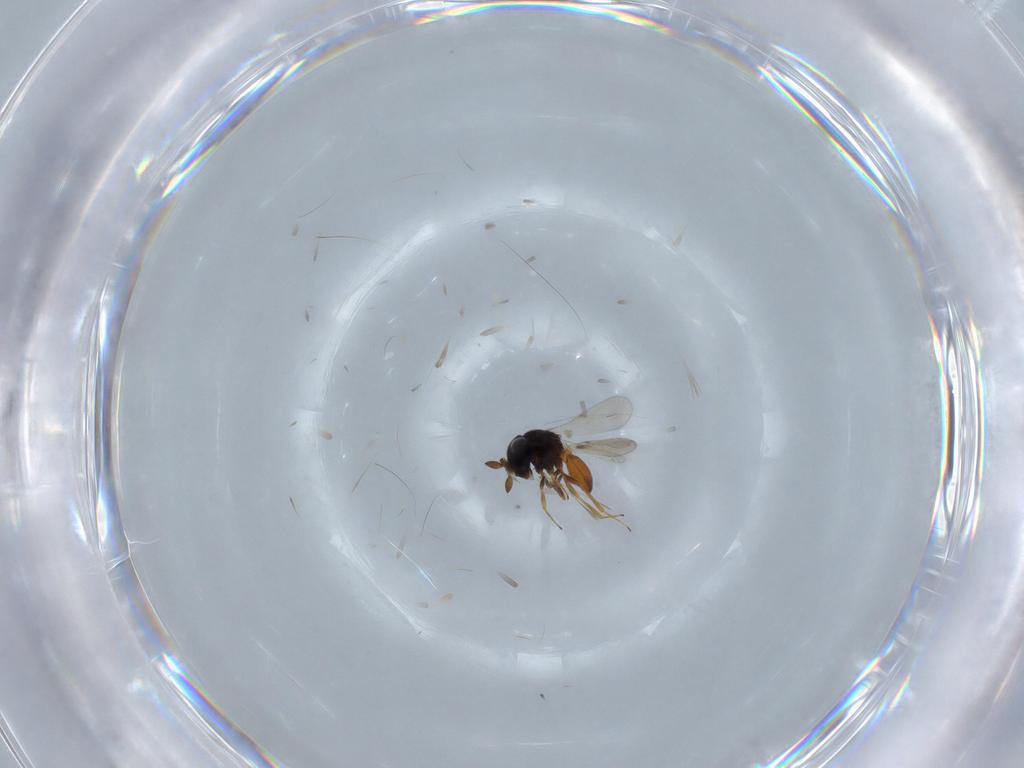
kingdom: Animalia
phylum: Arthropoda
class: Insecta
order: Hymenoptera
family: Scelionidae
